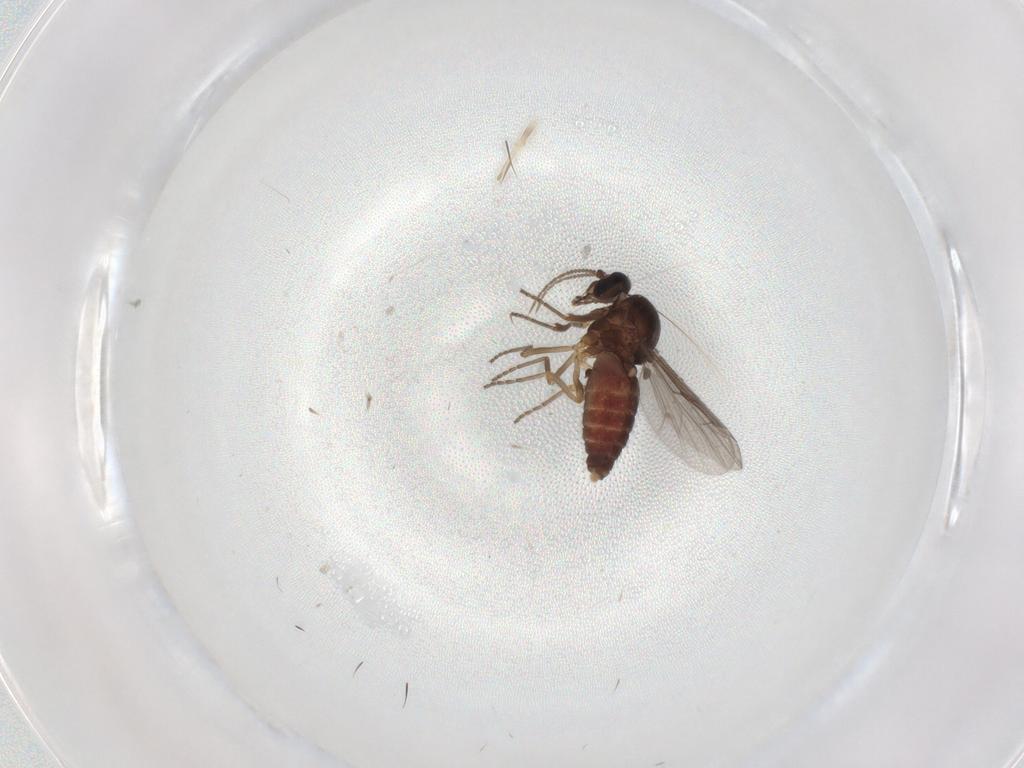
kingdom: Animalia
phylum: Arthropoda
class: Insecta
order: Diptera
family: Ceratopogonidae
